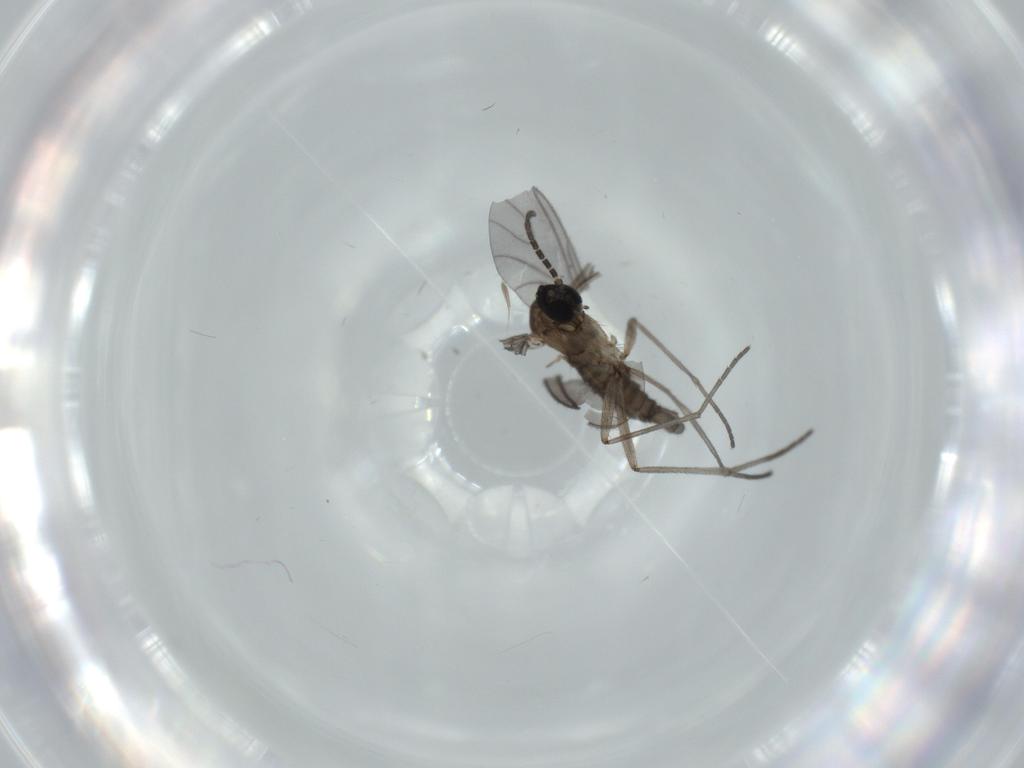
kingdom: Animalia
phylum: Arthropoda
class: Insecta
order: Diptera
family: Sciaridae
